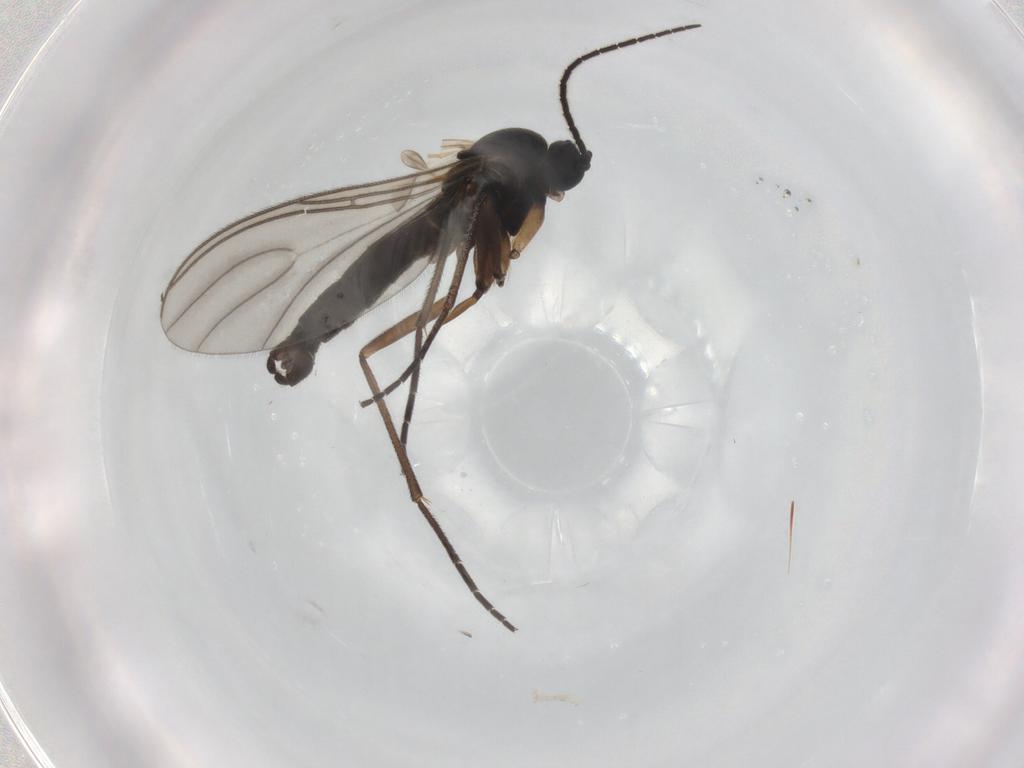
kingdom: Animalia
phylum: Arthropoda
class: Insecta
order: Diptera
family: Sciaridae
